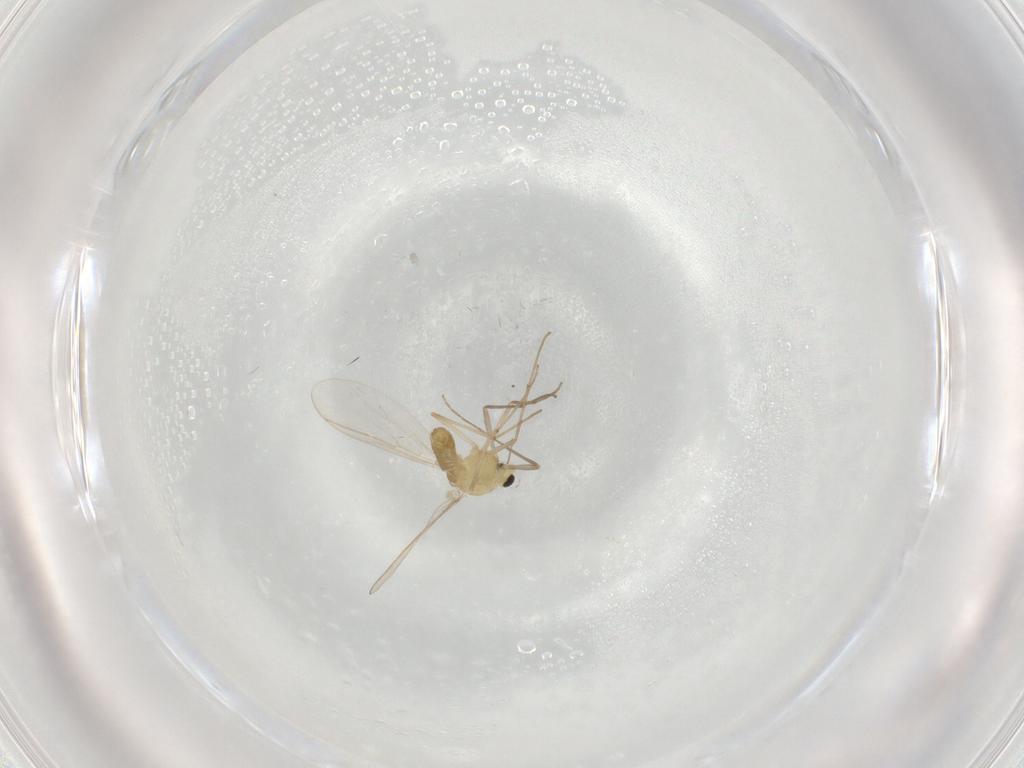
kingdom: Animalia
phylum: Arthropoda
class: Insecta
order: Diptera
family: Chironomidae
